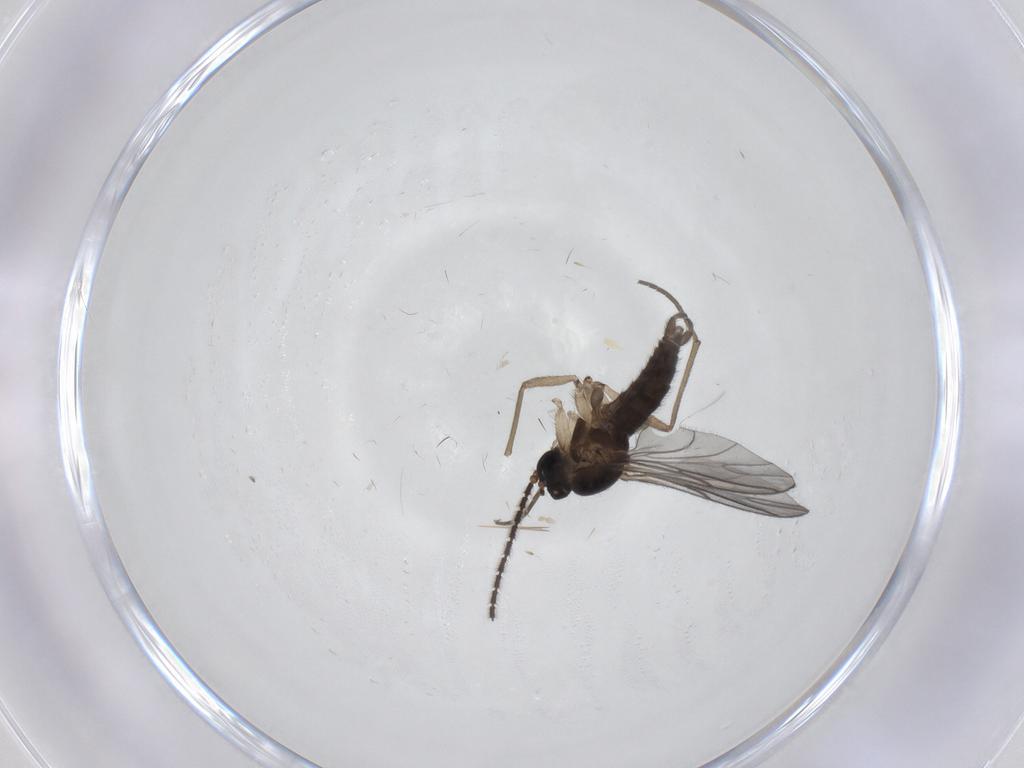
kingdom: Animalia
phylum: Arthropoda
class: Insecta
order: Diptera
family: Sciaridae
